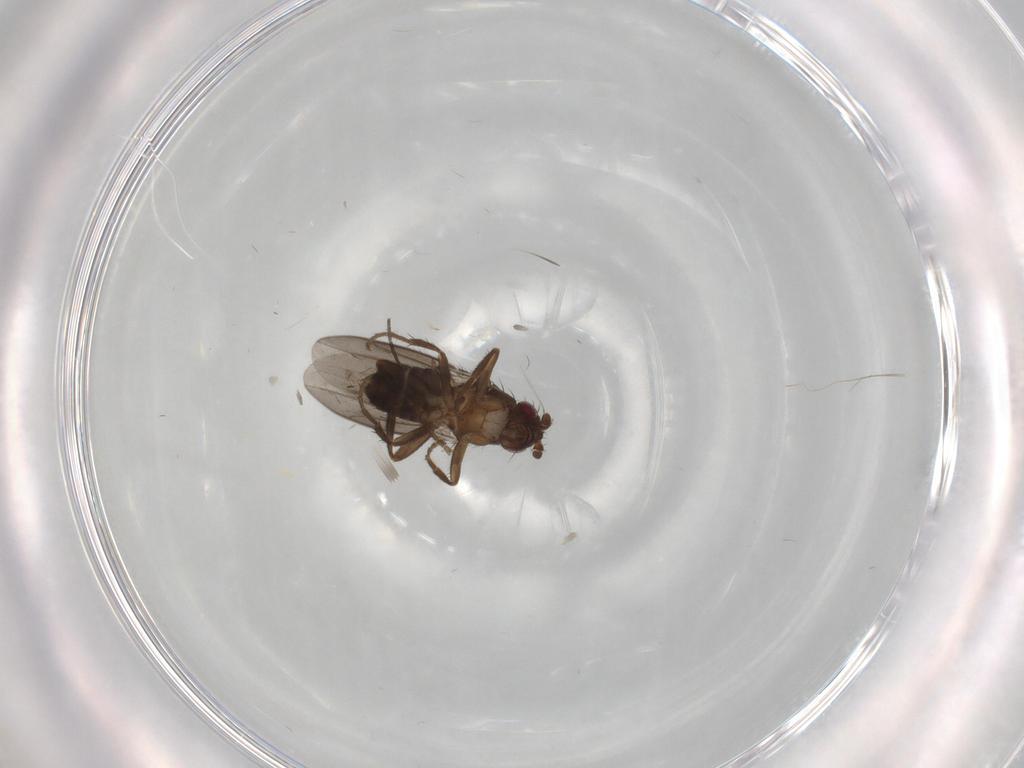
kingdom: Animalia
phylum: Arthropoda
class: Insecta
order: Diptera
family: Sciaridae
